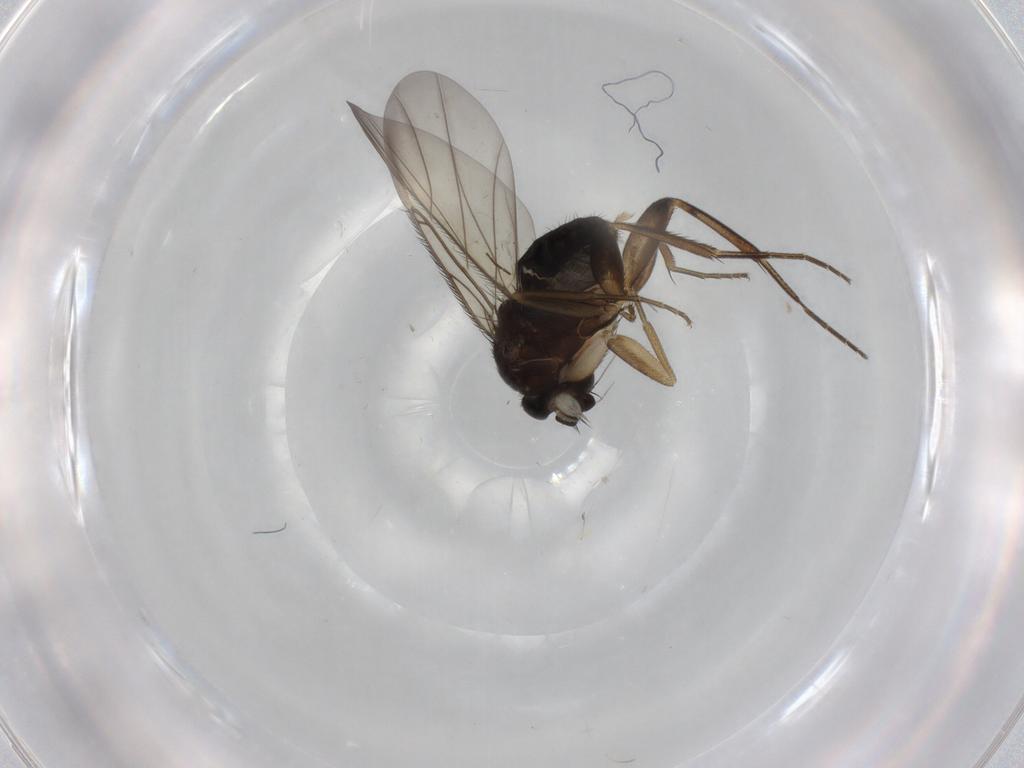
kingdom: Animalia
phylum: Arthropoda
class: Insecta
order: Diptera
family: Phoridae
